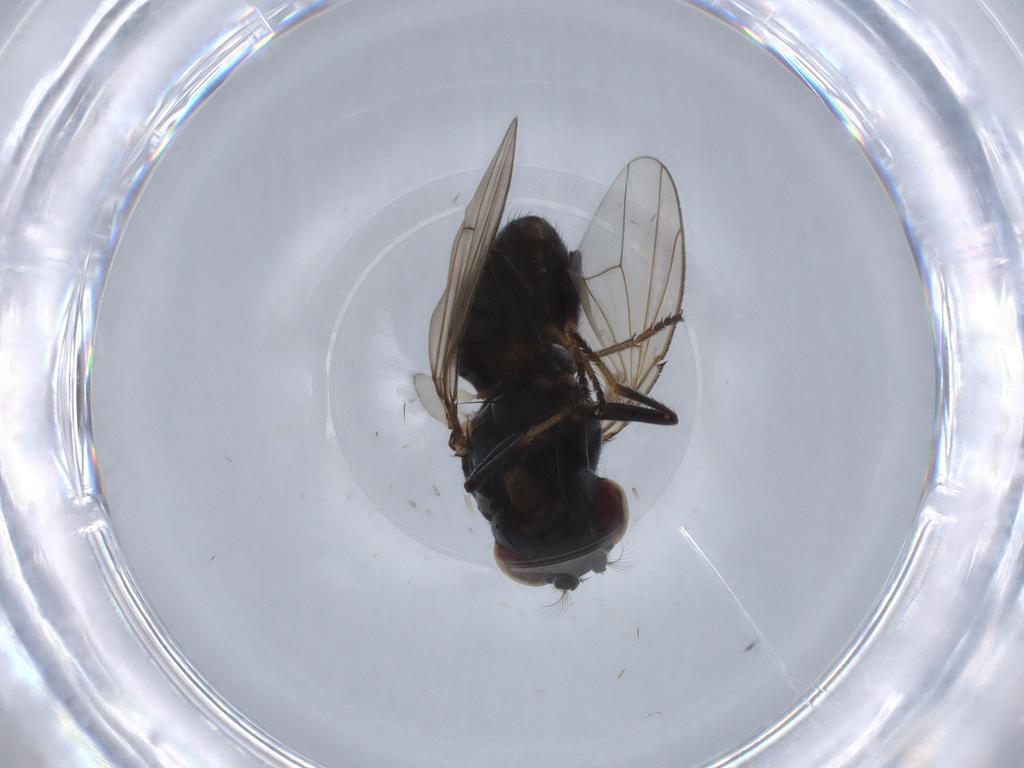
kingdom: Animalia
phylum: Arthropoda
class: Insecta
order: Diptera
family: Ephydridae
